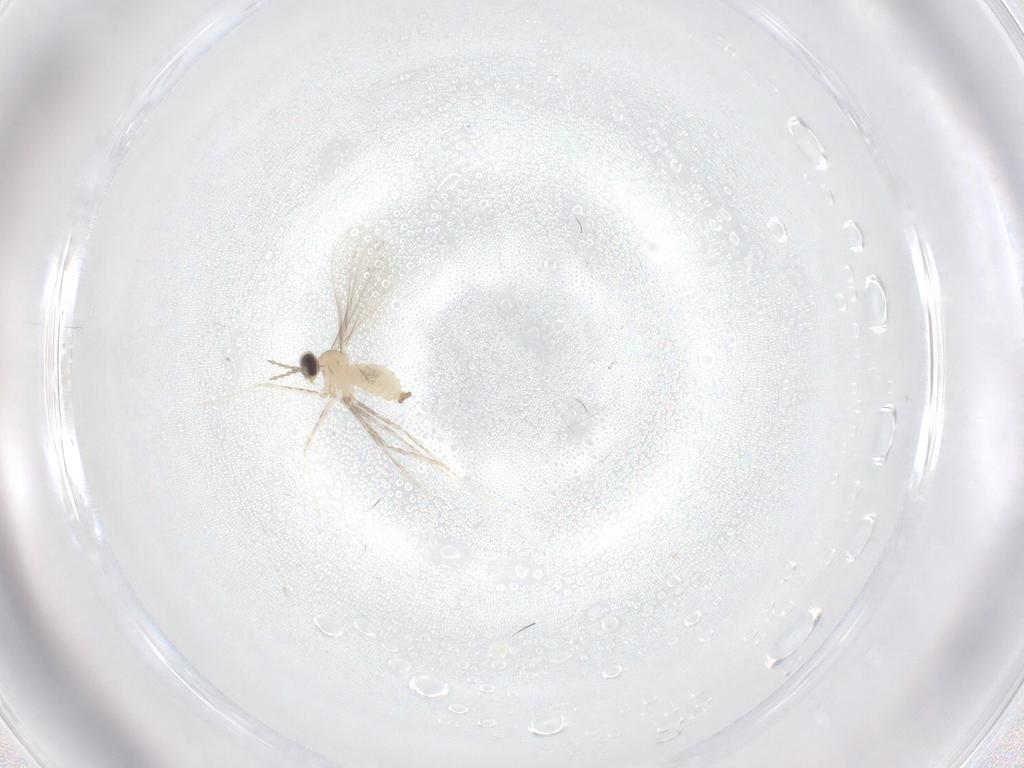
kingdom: Animalia
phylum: Arthropoda
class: Insecta
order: Diptera
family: Cecidomyiidae
